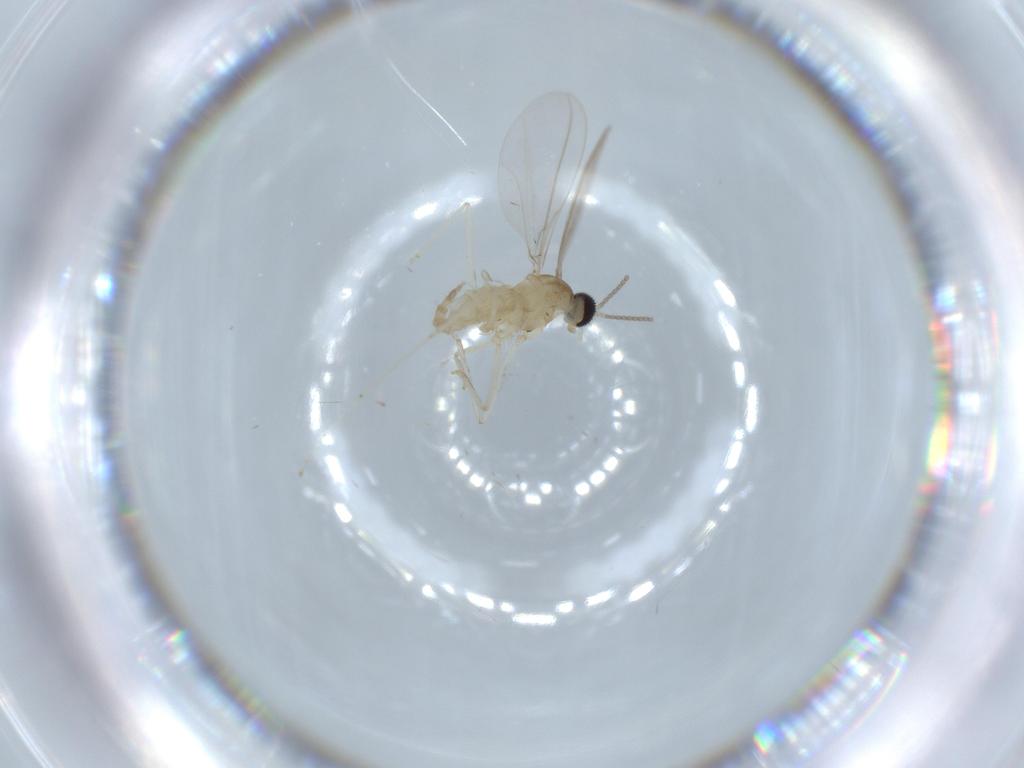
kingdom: Animalia
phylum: Arthropoda
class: Insecta
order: Diptera
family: Cecidomyiidae
